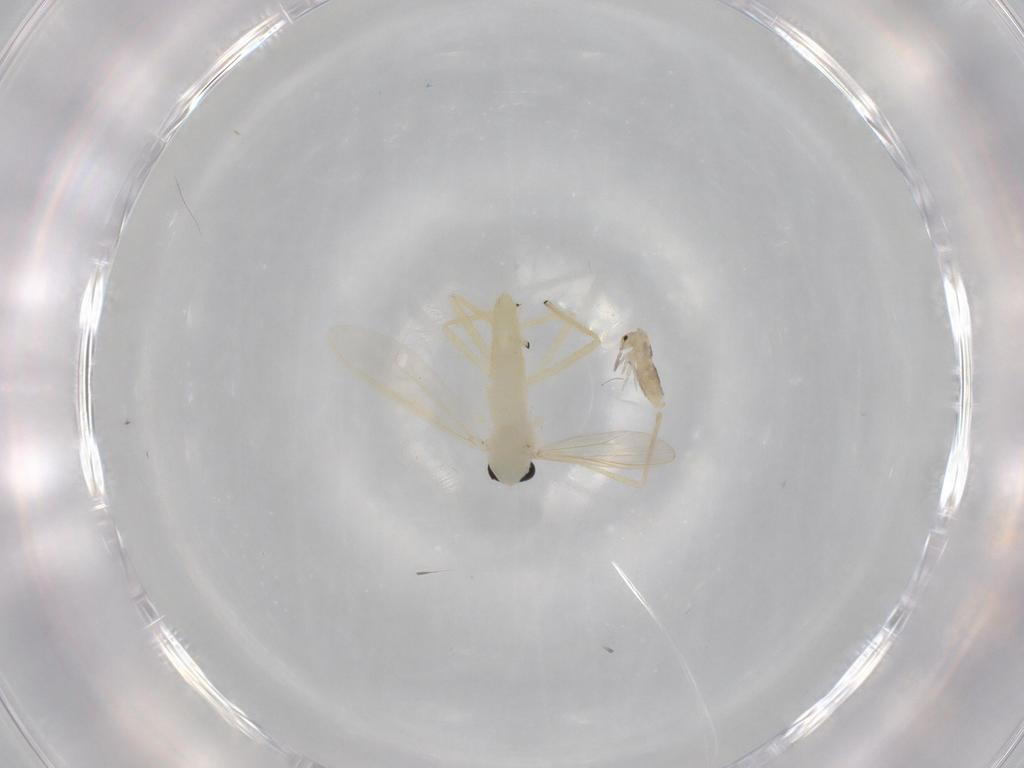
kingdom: Animalia
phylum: Arthropoda
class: Insecta
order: Diptera
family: Chironomidae
